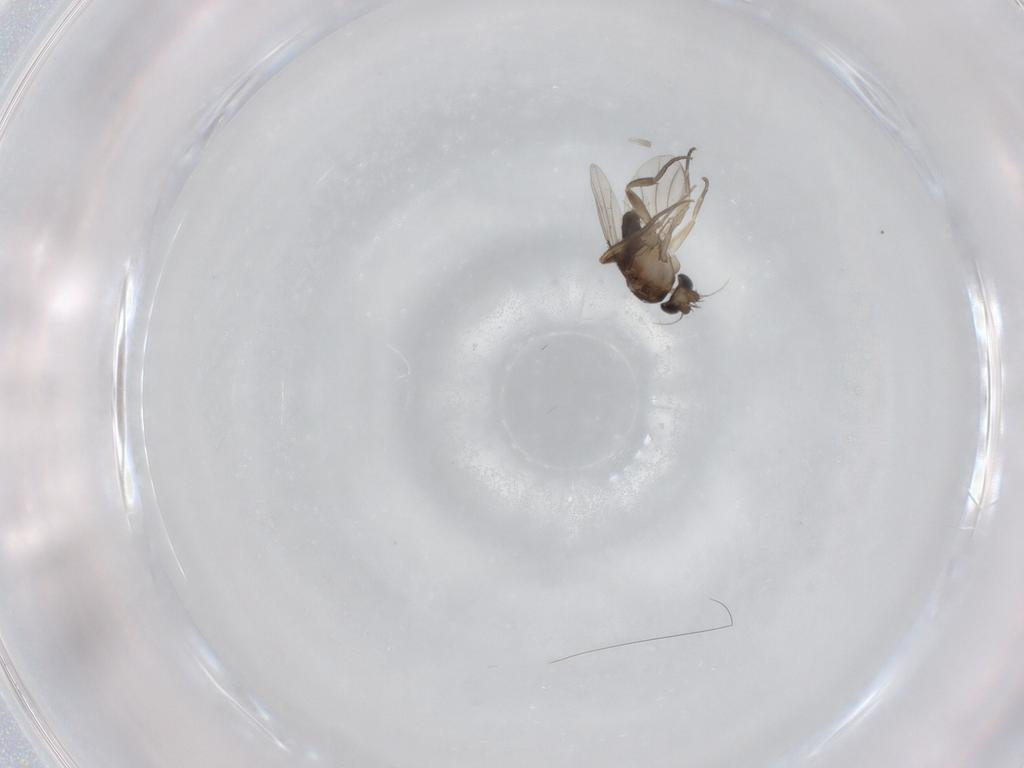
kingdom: Animalia
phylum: Arthropoda
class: Insecta
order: Diptera
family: Phoridae
